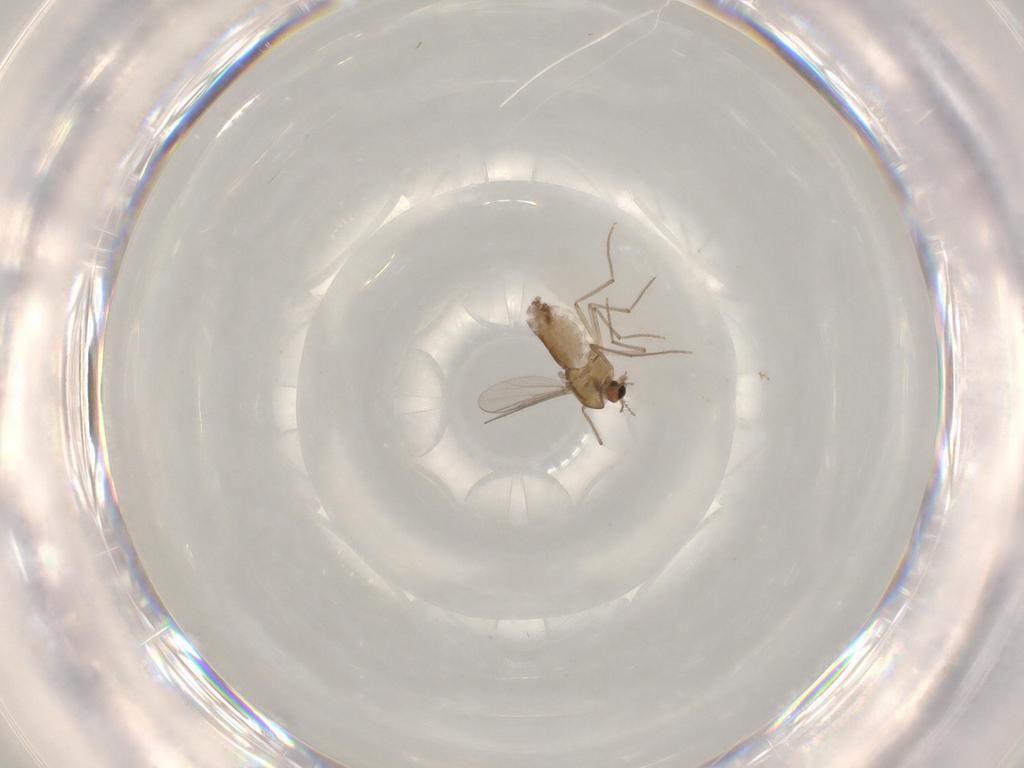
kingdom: Animalia
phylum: Arthropoda
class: Insecta
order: Diptera
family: Chironomidae
